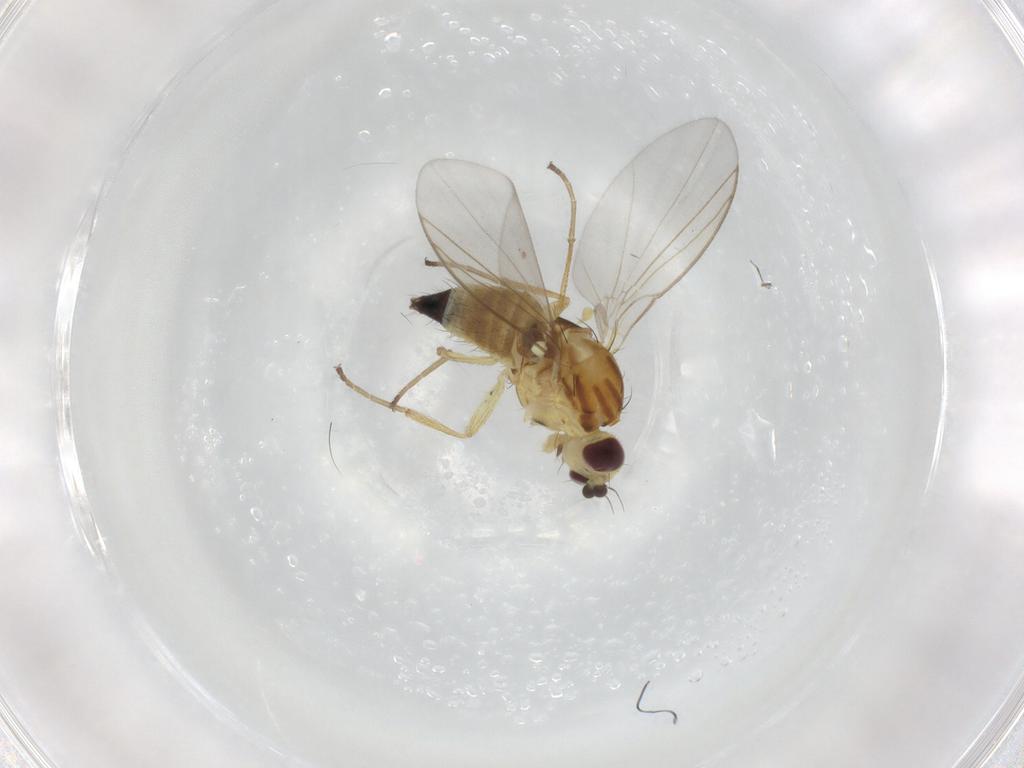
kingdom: Animalia
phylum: Arthropoda
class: Insecta
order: Diptera
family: Agromyzidae
